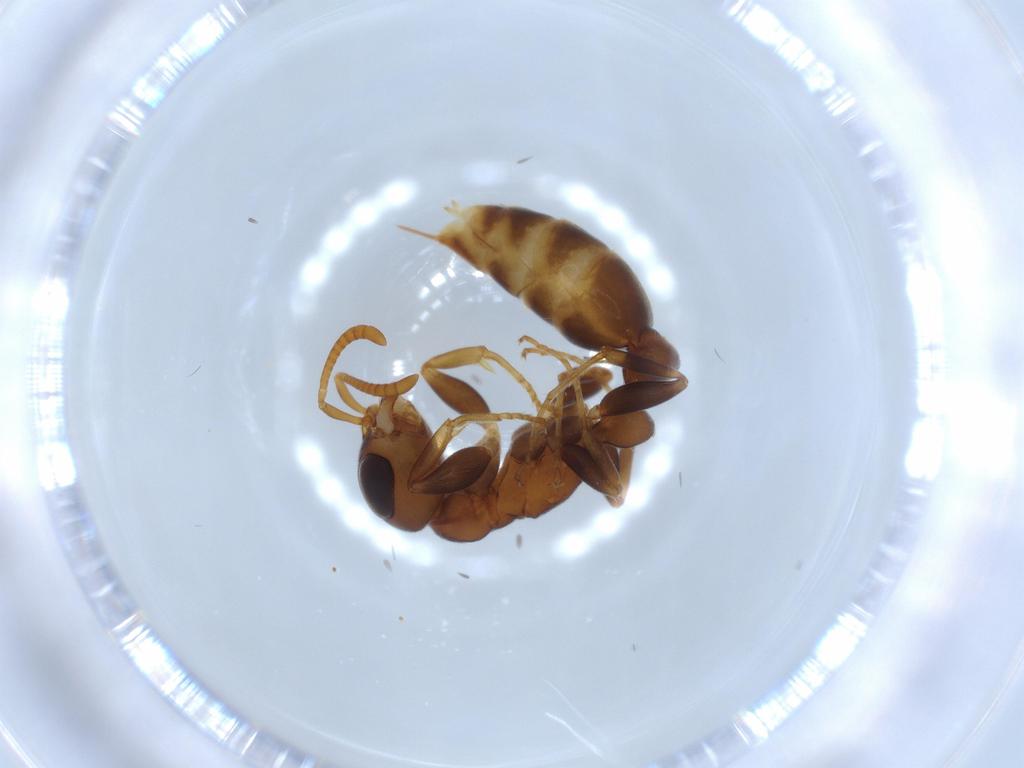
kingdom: Animalia
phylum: Arthropoda
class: Insecta
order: Hymenoptera
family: Formicidae
